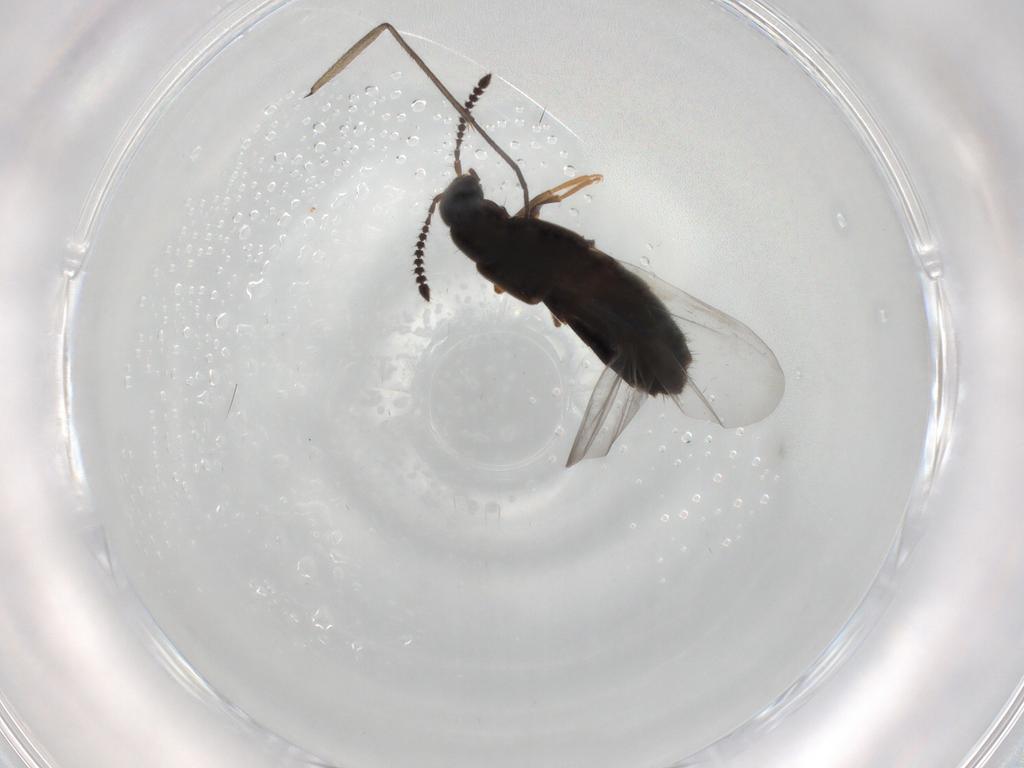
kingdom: Animalia
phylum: Arthropoda
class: Insecta
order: Coleoptera
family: Staphylinidae
